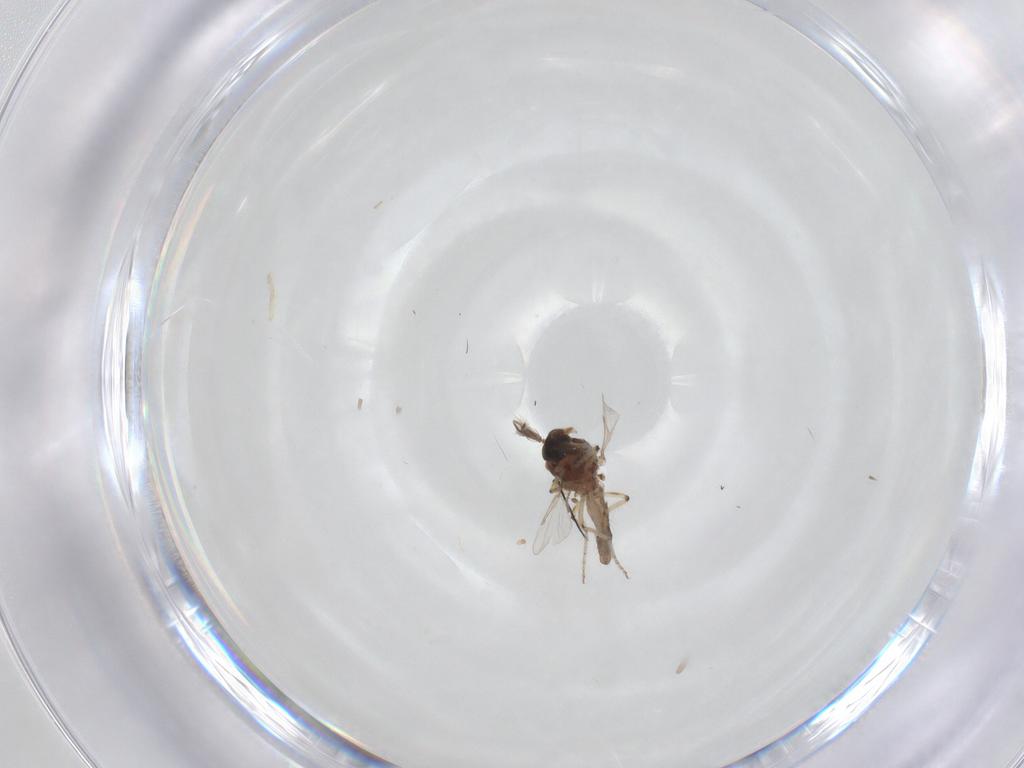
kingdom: Animalia
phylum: Arthropoda
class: Insecta
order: Diptera
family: Ceratopogonidae
